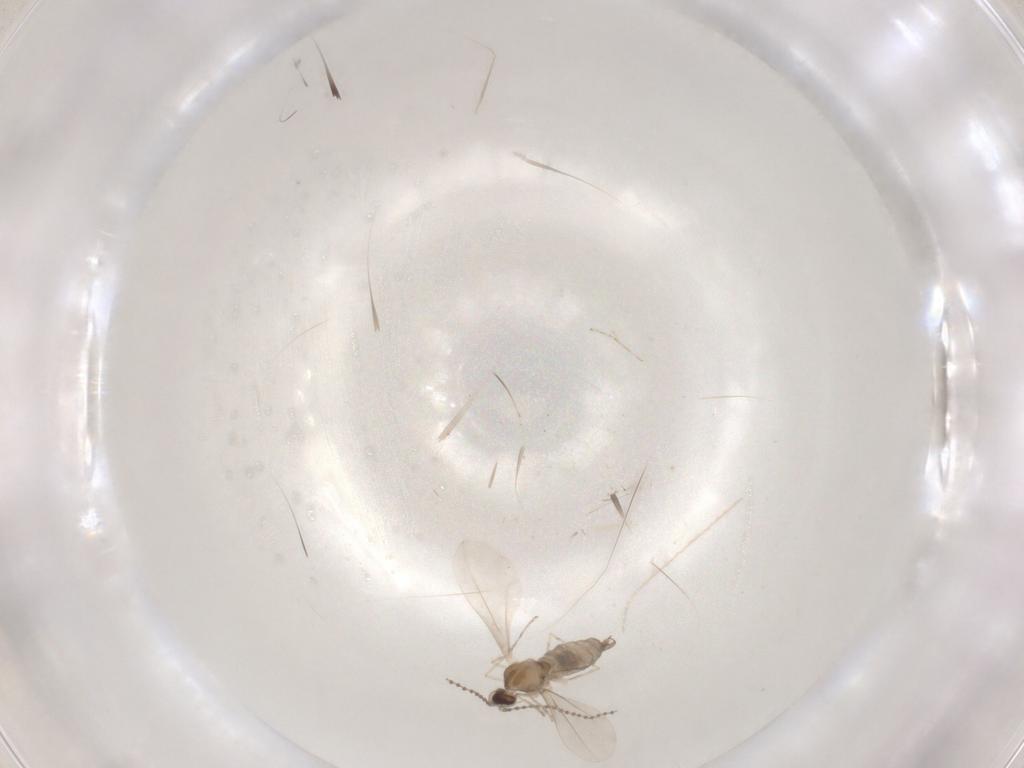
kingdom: Animalia
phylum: Arthropoda
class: Insecta
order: Diptera
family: Cecidomyiidae
